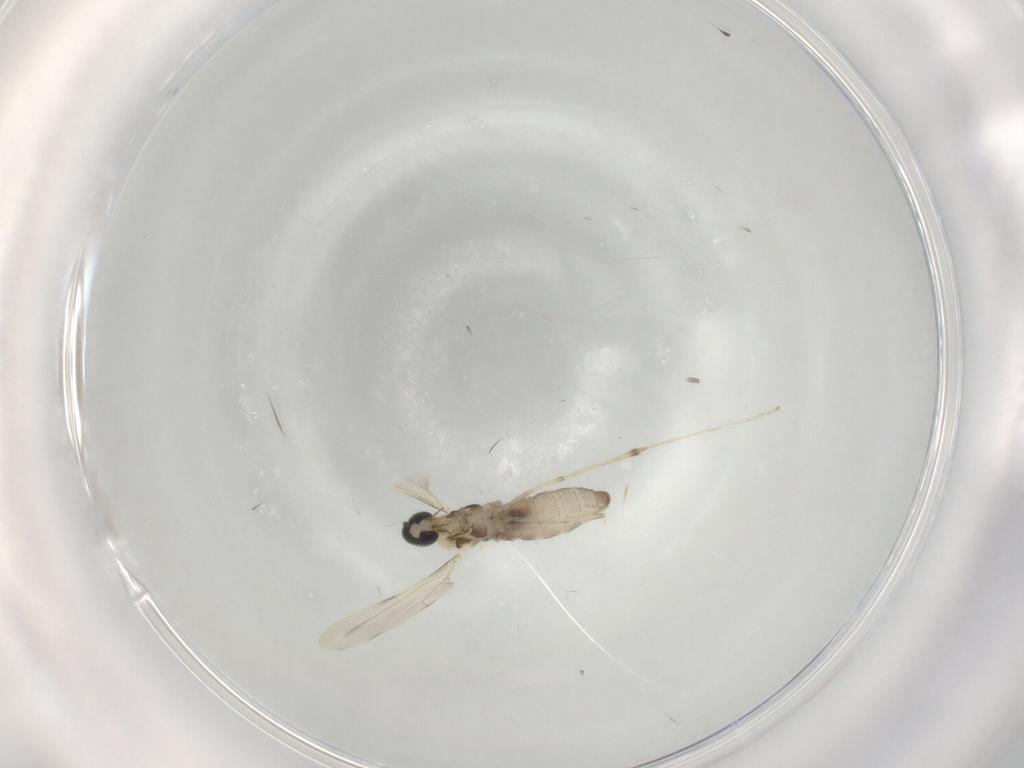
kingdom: Animalia
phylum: Arthropoda
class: Insecta
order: Diptera
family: Cecidomyiidae
